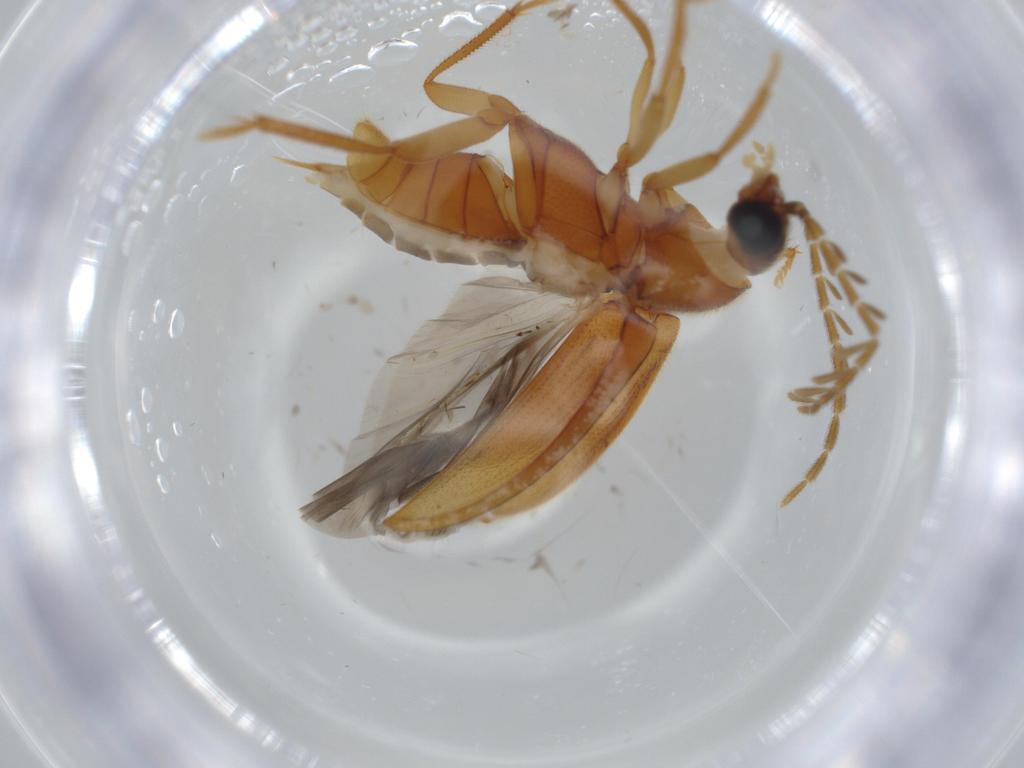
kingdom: Animalia
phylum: Arthropoda
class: Insecta
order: Coleoptera
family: Ptilodactylidae
